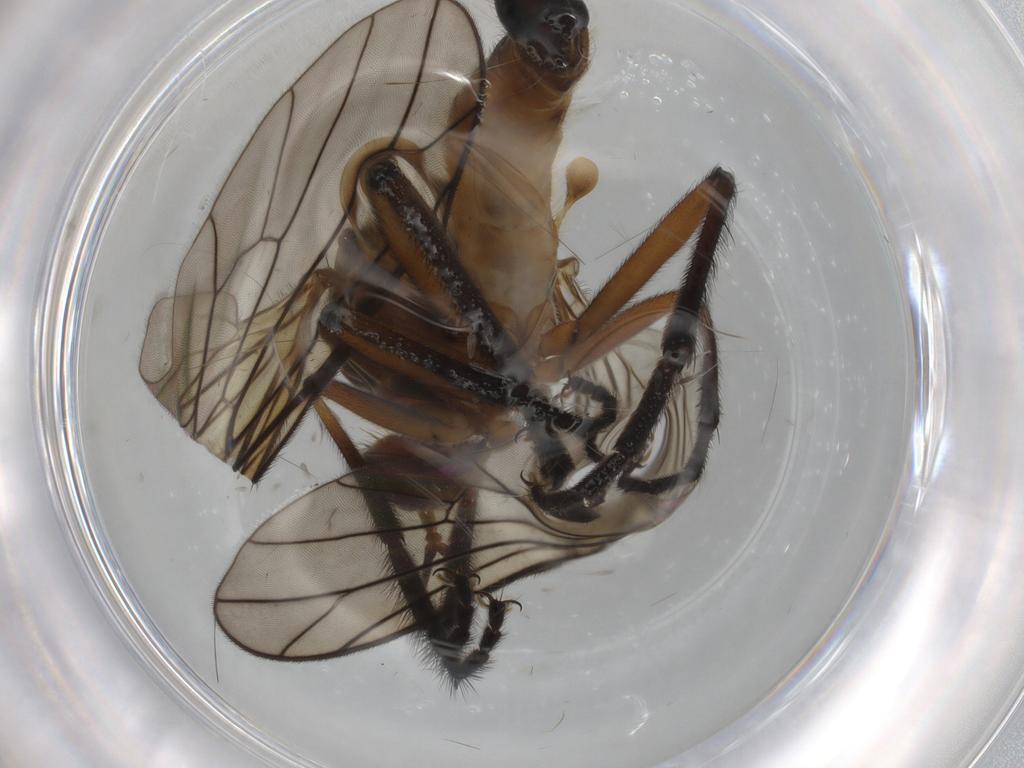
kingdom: Animalia
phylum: Arthropoda
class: Insecta
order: Diptera
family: Empididae
